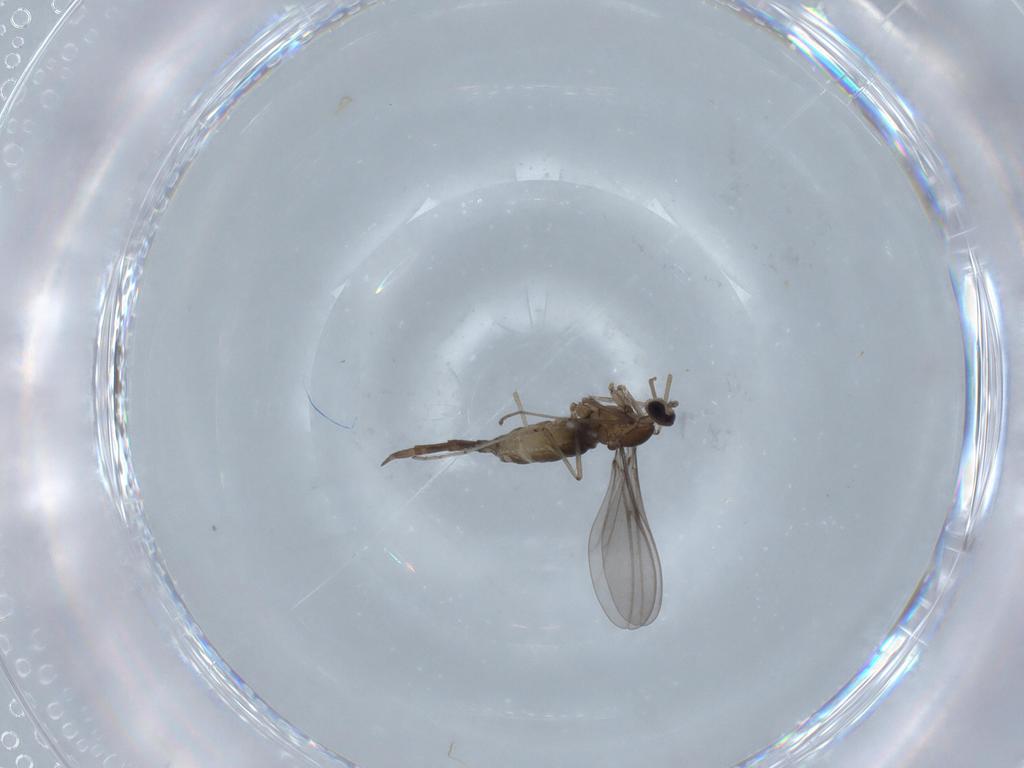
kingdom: Animalia
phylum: Arthropoda
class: Insecta
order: Diptera
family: Cecidomyiidae
